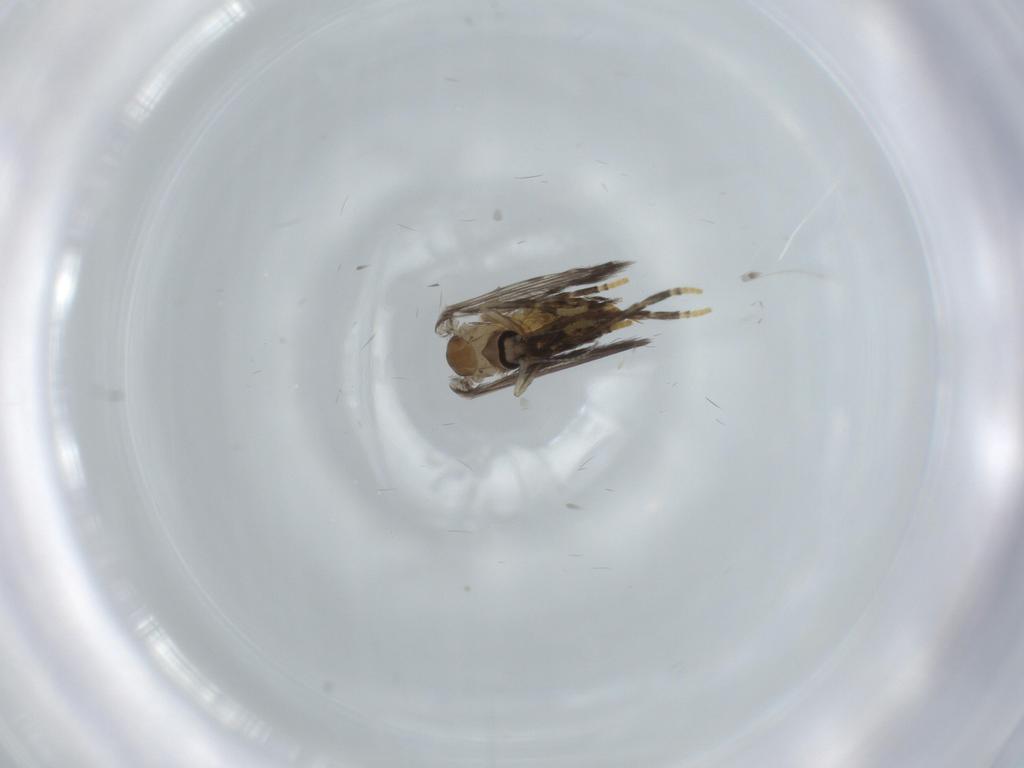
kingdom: Animalia
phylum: Arthropoda
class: Insecta
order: Diptera
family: Psychodidae
